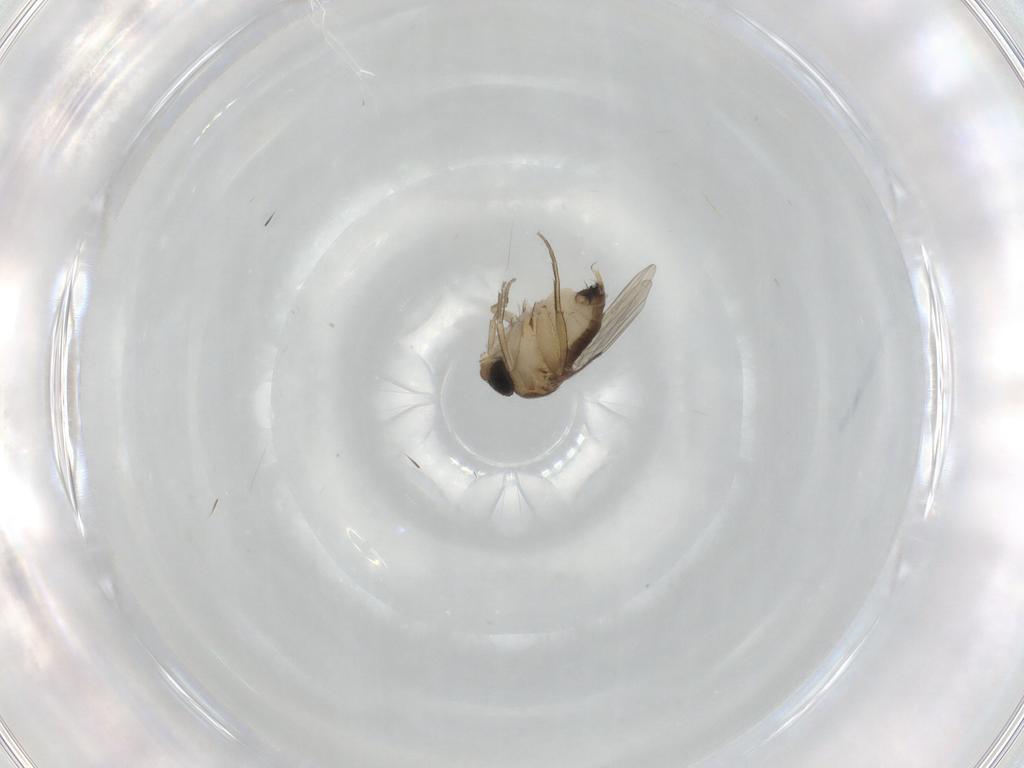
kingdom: Animalia
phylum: Arthropoda
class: Insecta
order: Diptera
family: Phoridae
